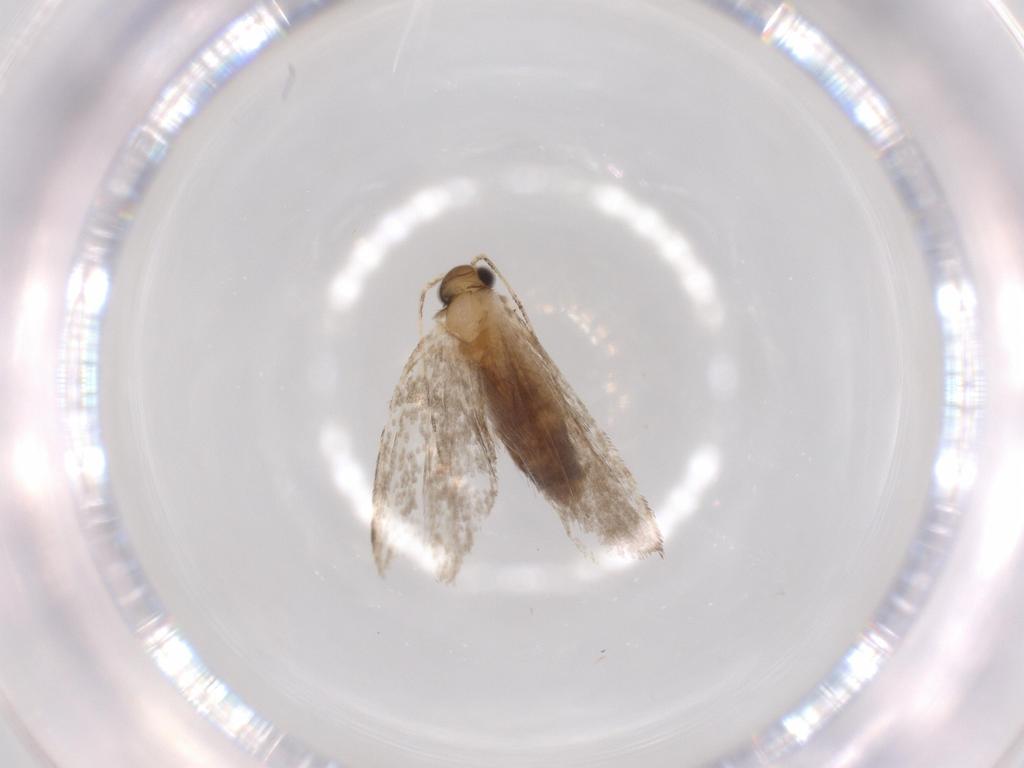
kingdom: Animalia
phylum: Arthropoda
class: Insecta
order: Lepidoptera
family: Tineidae
